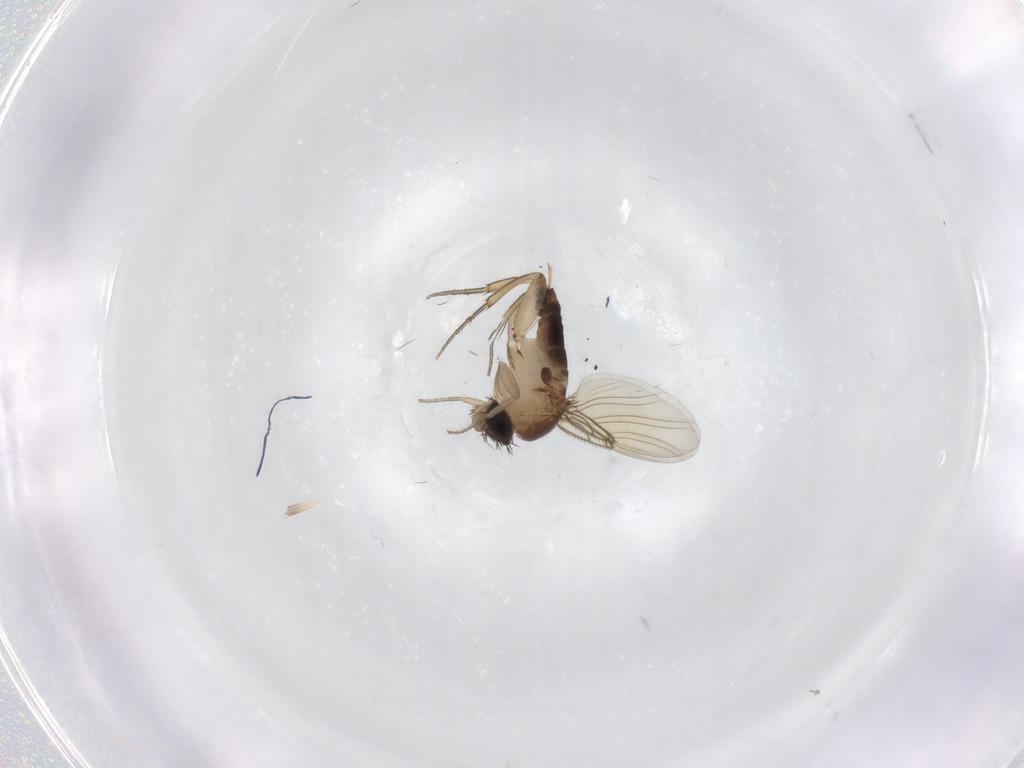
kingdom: Animalia
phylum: Arthropoda
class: Insecta
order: Diptera
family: Phoridae
